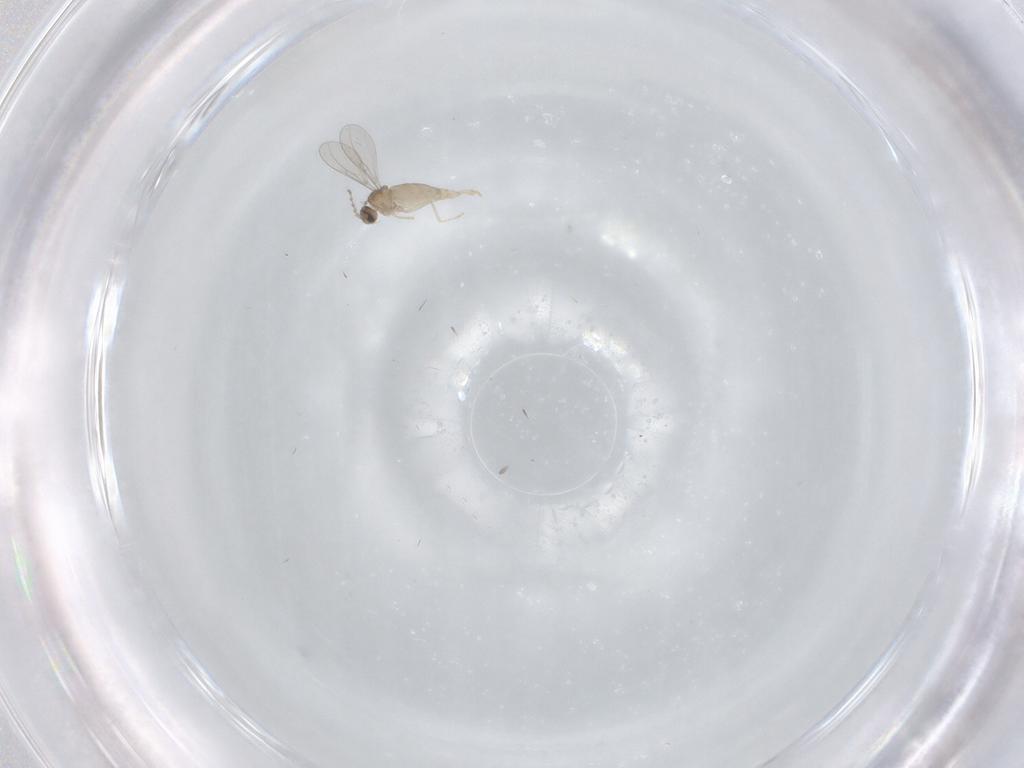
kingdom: Animalia
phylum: Arthropoda
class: Insecta
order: Diptera
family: Cecidomyiidae
